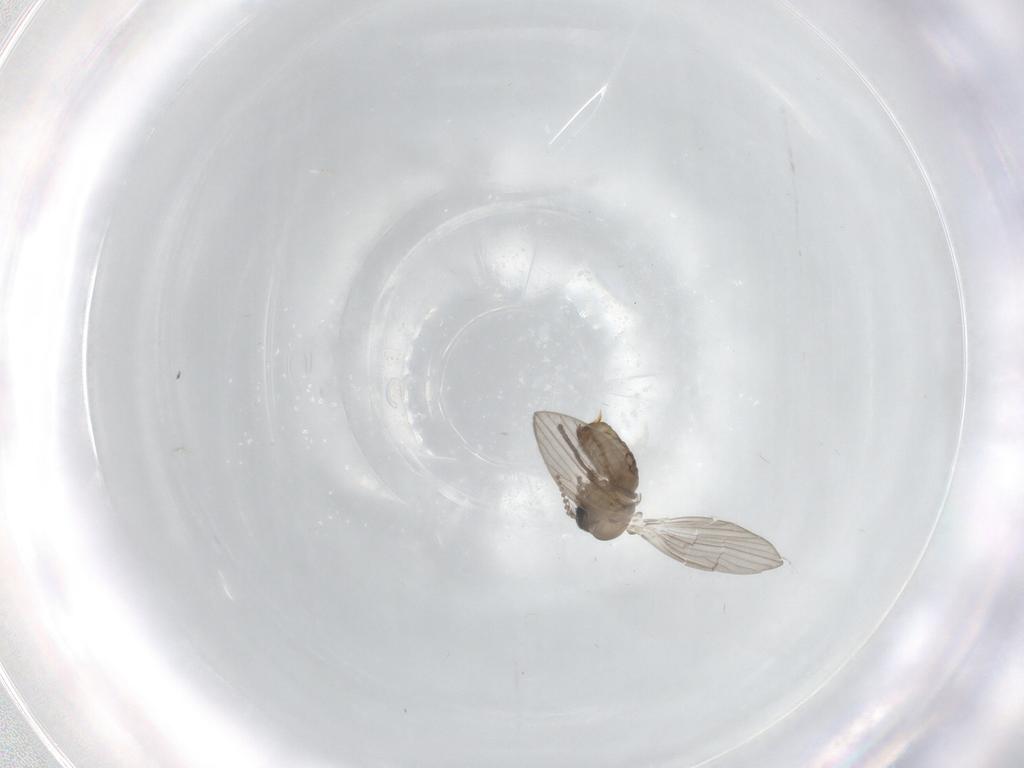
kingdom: Animalia
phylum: Arthropoda
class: Insecta
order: Diptera
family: Psychodidae
